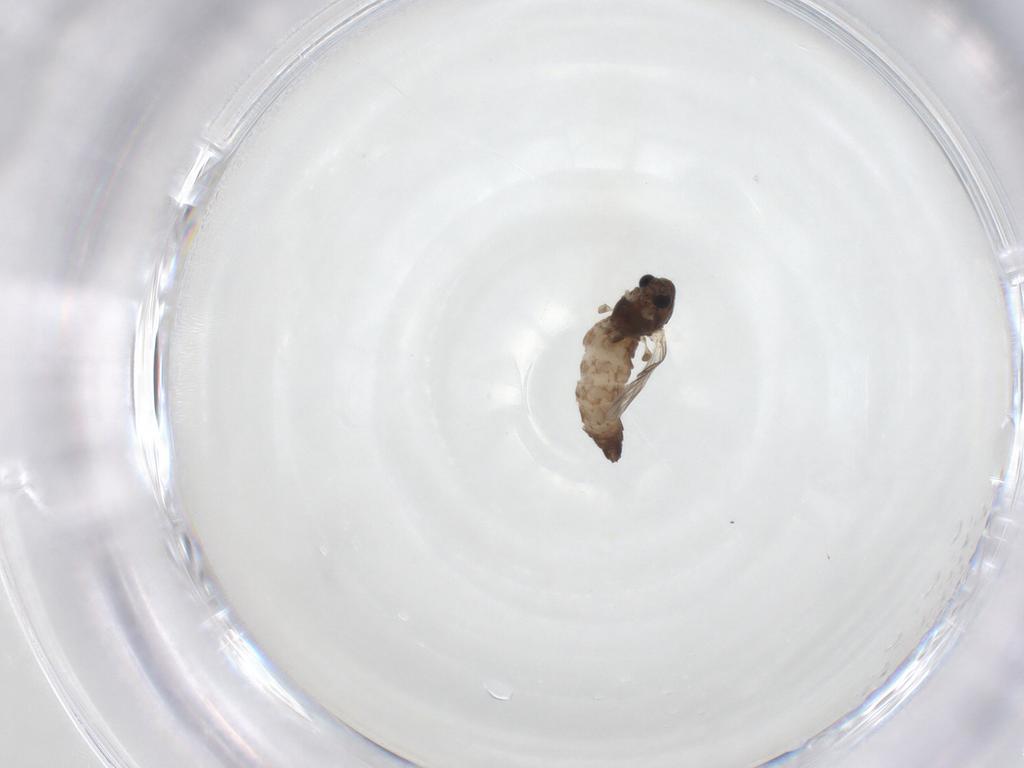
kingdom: Animalia
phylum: Arthropoda
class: Insecta
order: Diptera
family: Chironomidae
